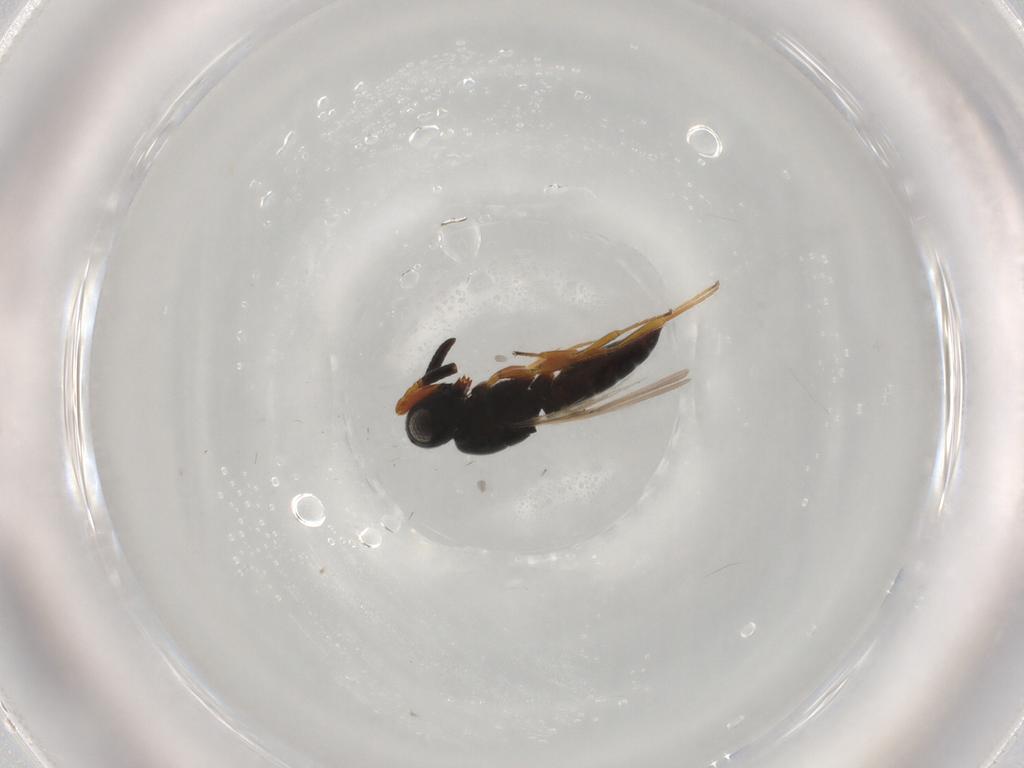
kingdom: Animalia
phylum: Arthropoda
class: Insecta
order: Hymenoptera
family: Scelionidae
